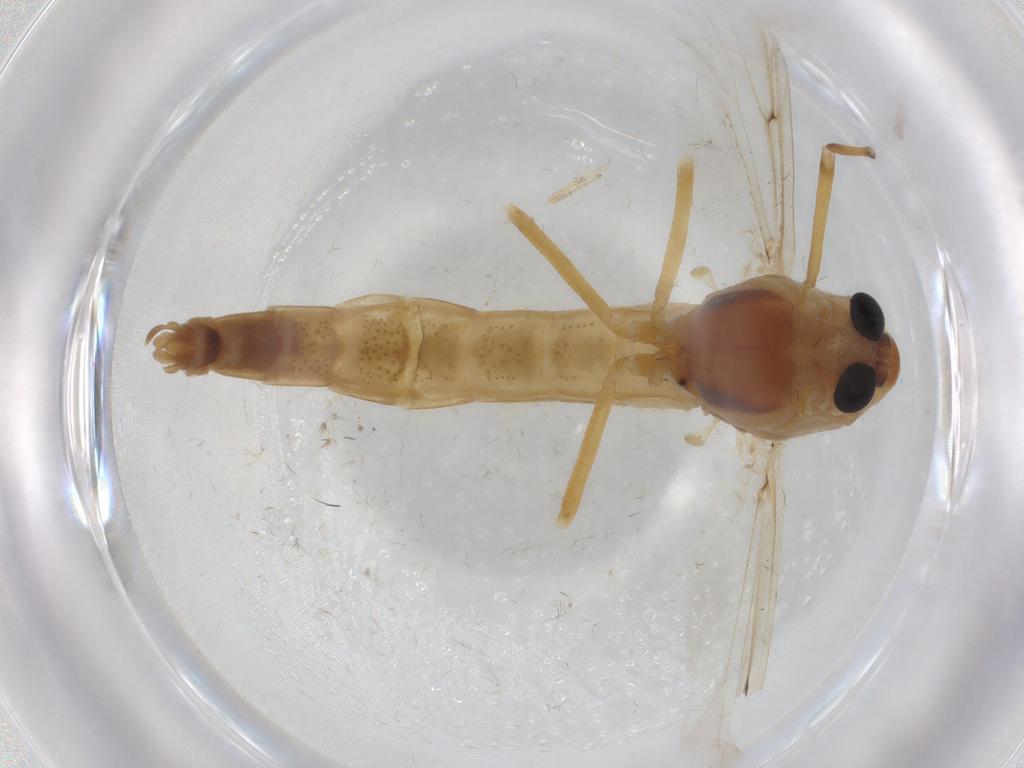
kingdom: Animalia
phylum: Arthropoda
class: Insecta
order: Diptera
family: Chironomidae
